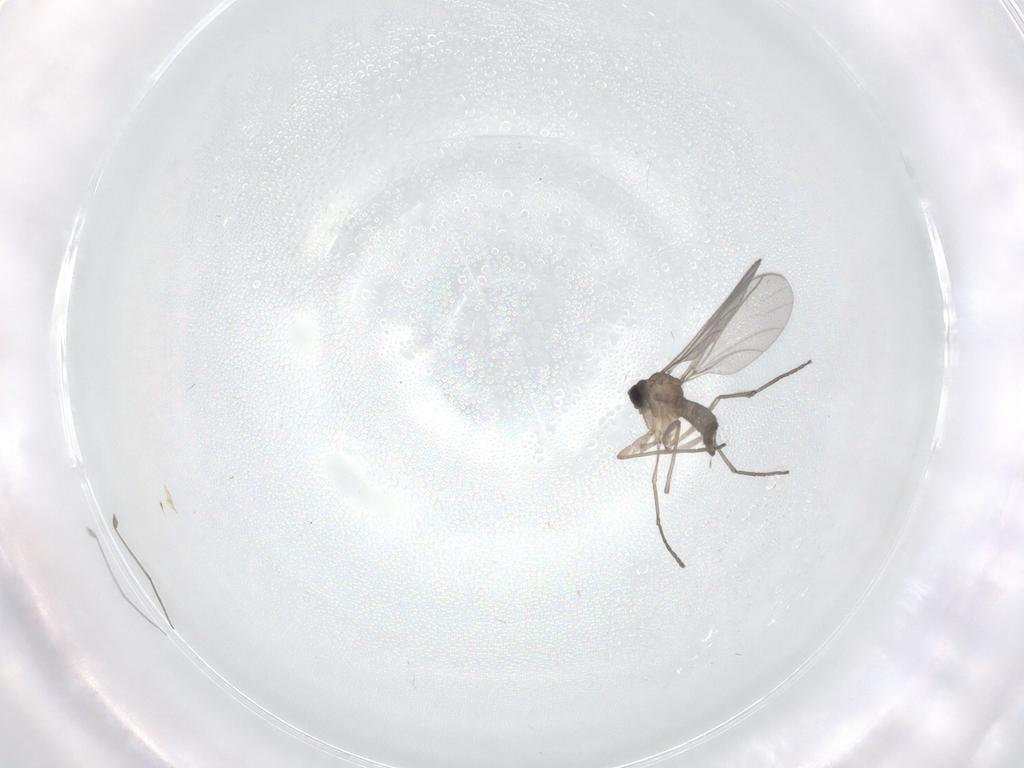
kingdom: Animalia
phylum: Arthropoda
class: Insecta
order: Diptera
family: Sciaridae
